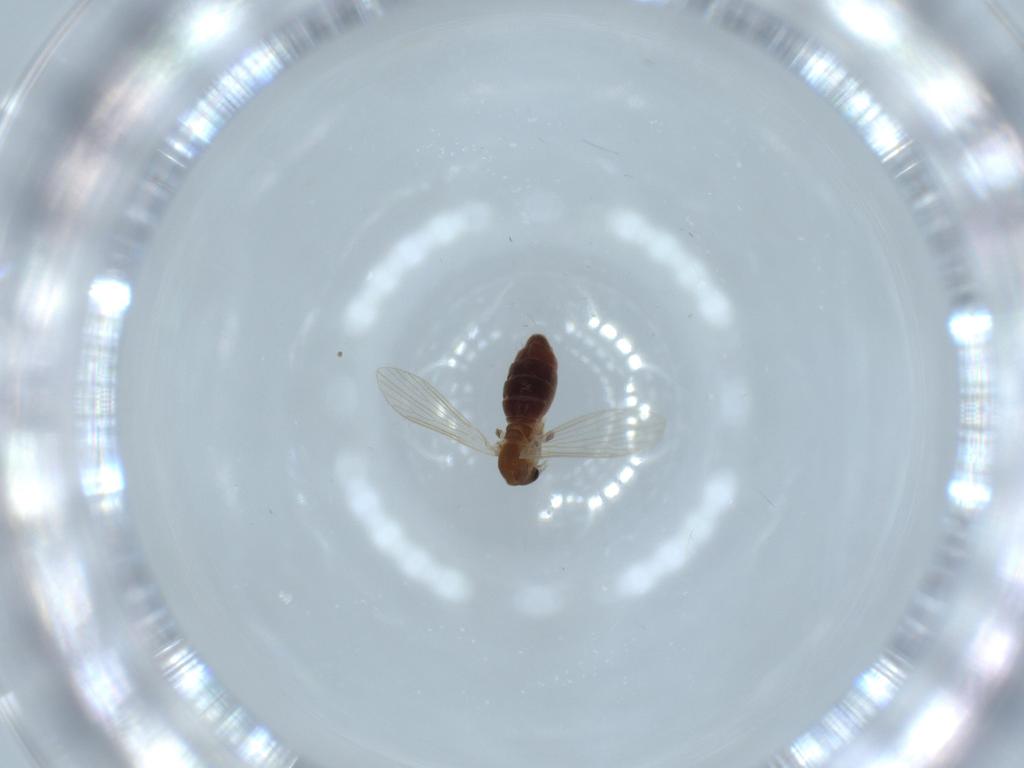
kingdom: Animalia
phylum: Arthropoda
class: Insecta
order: Diptera
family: Psychodidae
